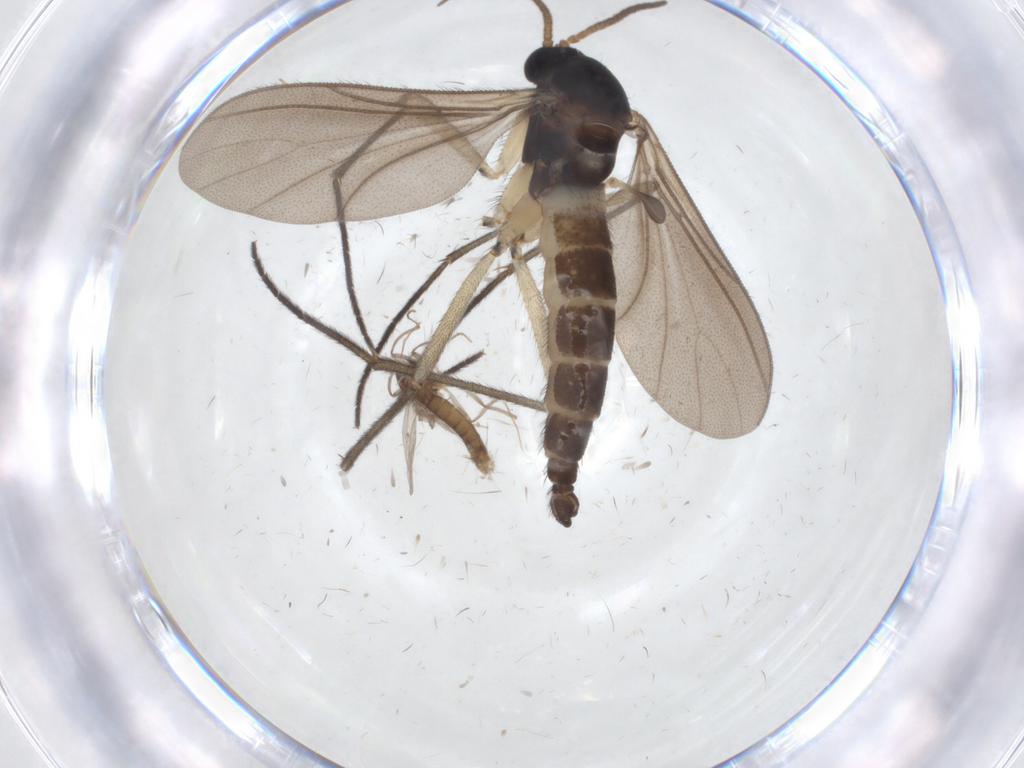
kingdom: Animalia
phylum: Arthropoda
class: Insecta
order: Diptera
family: Chironomidae
